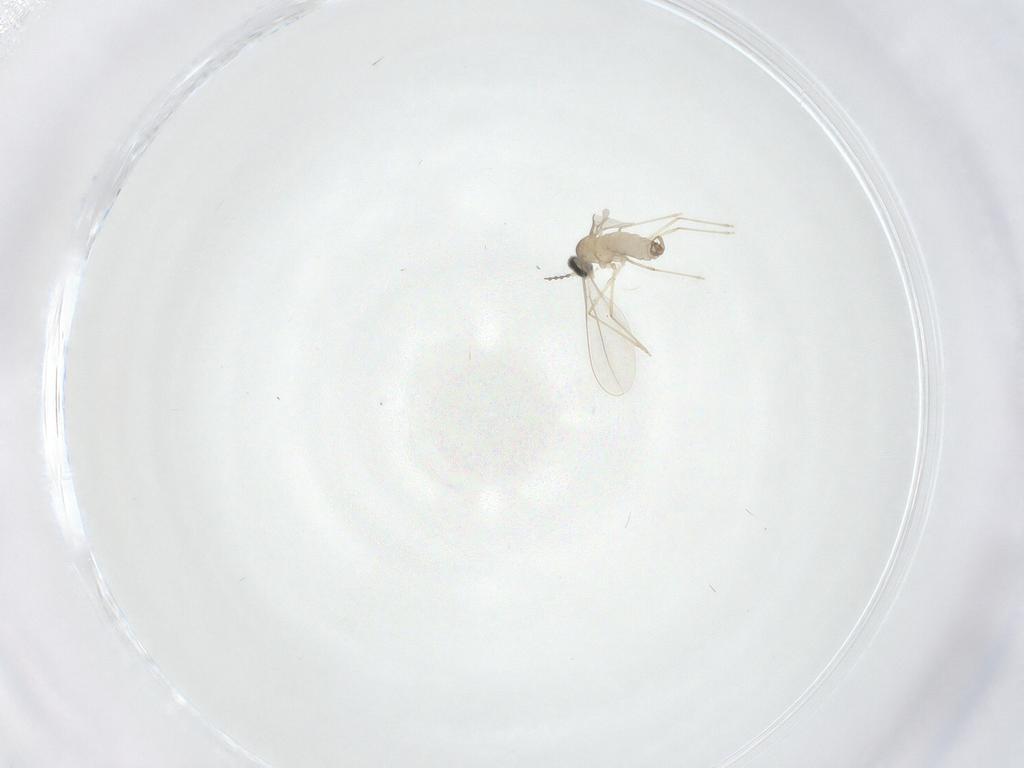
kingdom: Animalia
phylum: Arthropoda
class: Insecta
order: Diptera
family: Cecidomyiidae
